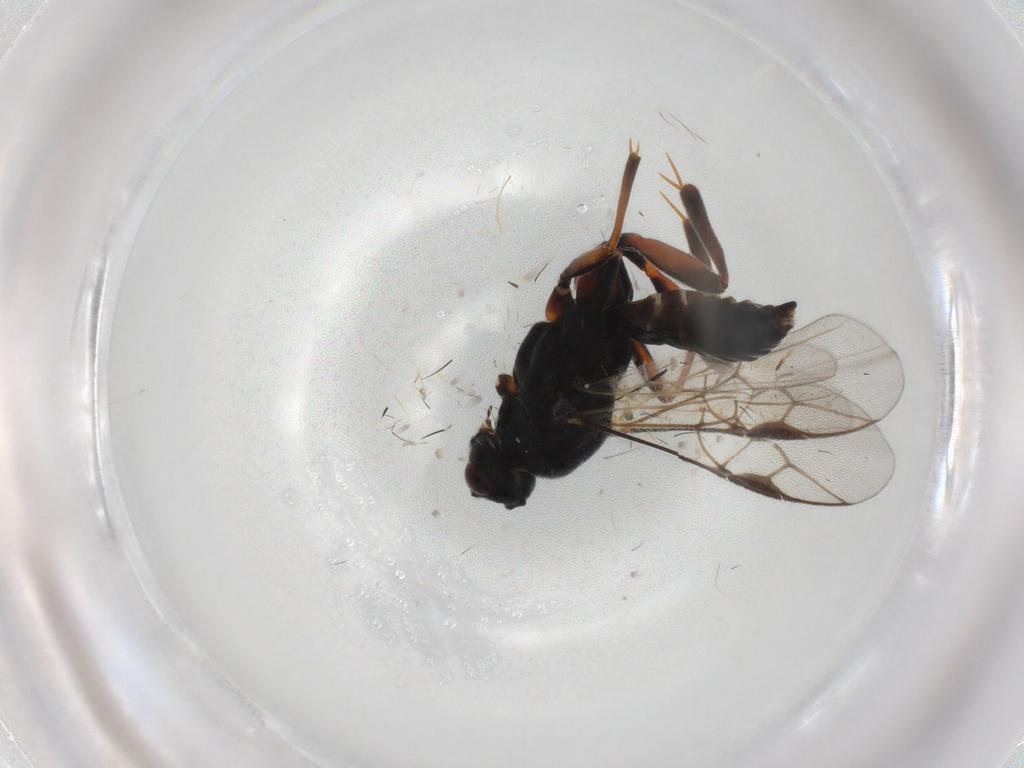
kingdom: Animalia
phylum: Arthropoda
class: Insecta
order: Hymenoptera
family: Braconidae
